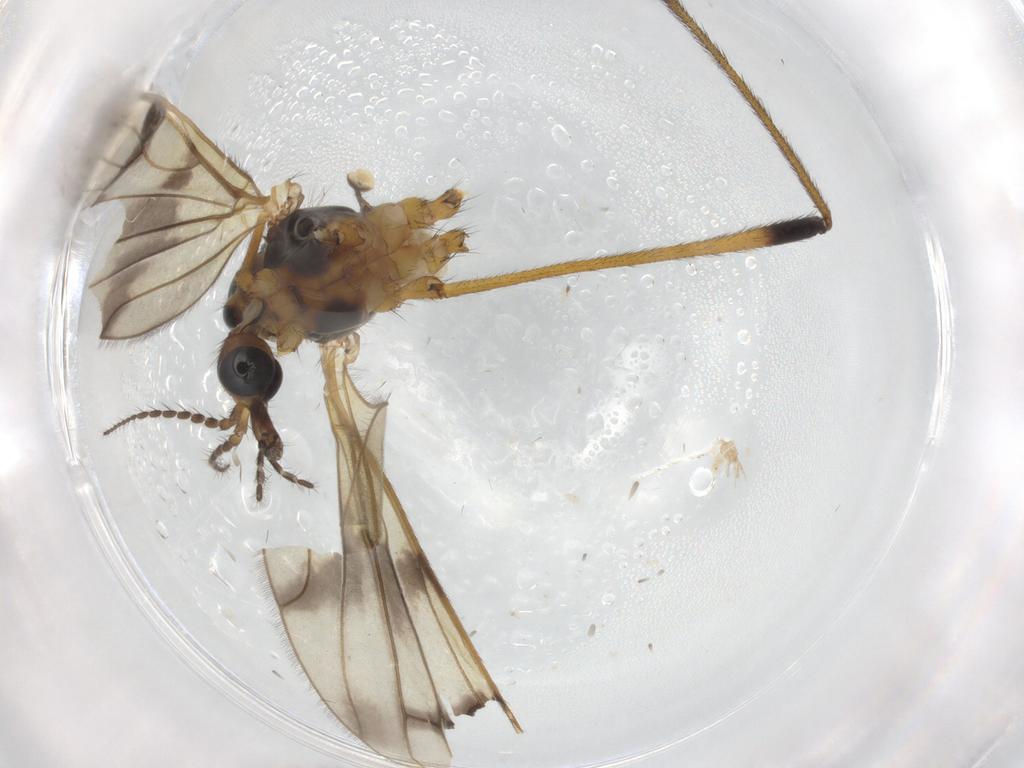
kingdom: Animalia
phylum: Arthropoda
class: Insecta
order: Diptera
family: Limoniidae
